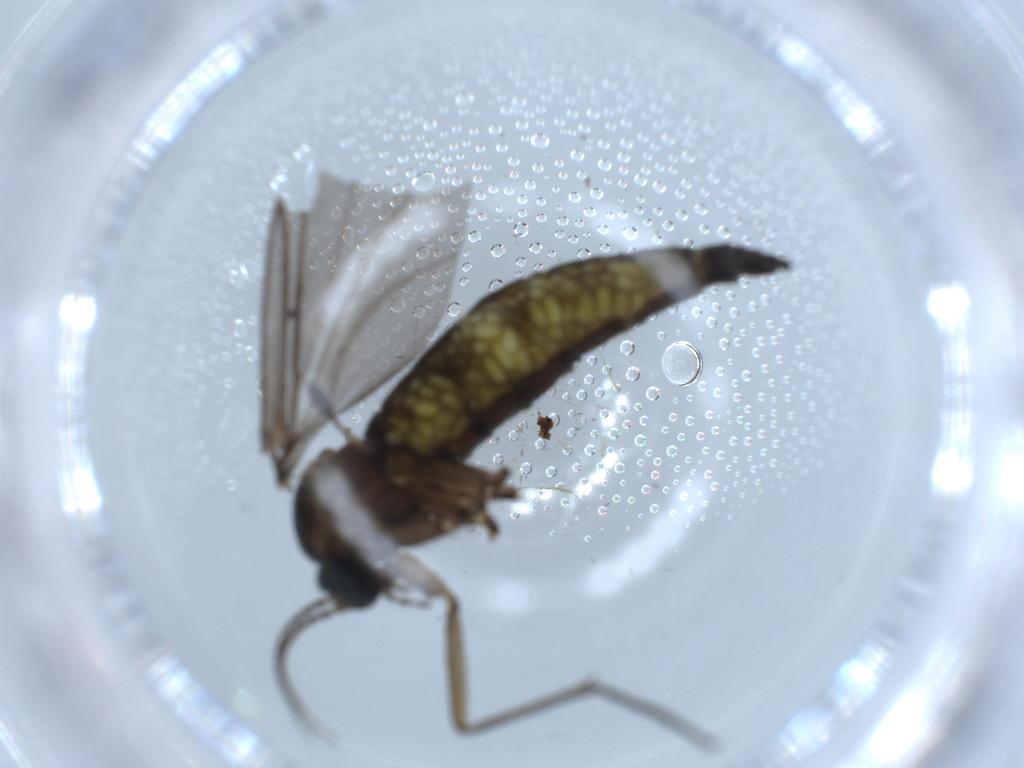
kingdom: Animalia
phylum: Arthropoda
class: Insecta
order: Diptera
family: Sciaridae
